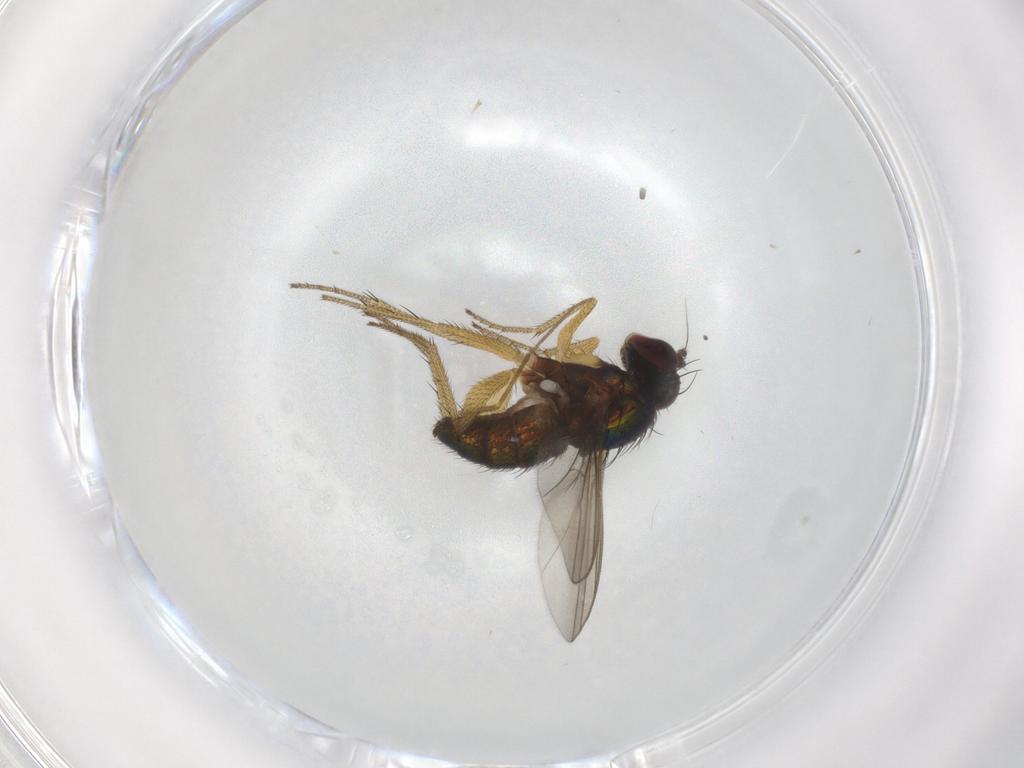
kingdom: Animalia
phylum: Arthropoda
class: Insecta
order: Diptera
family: Dolichopodidae
